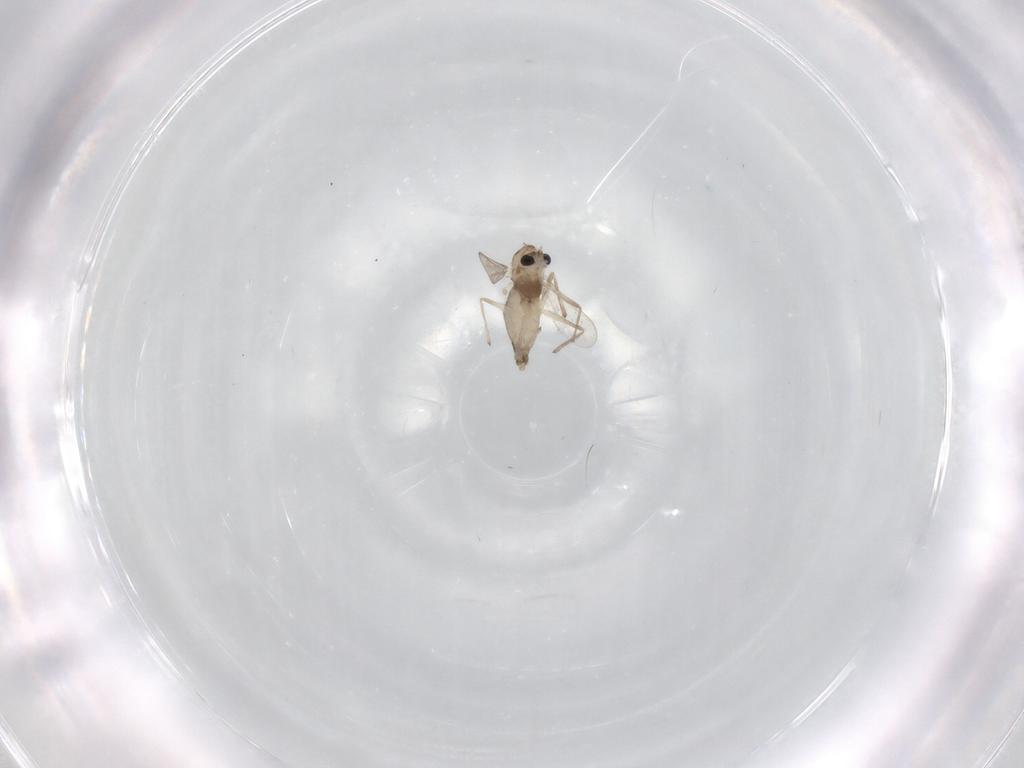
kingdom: Animalia
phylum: Arthropoda
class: Insecta
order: Diptera
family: Chironomidae
